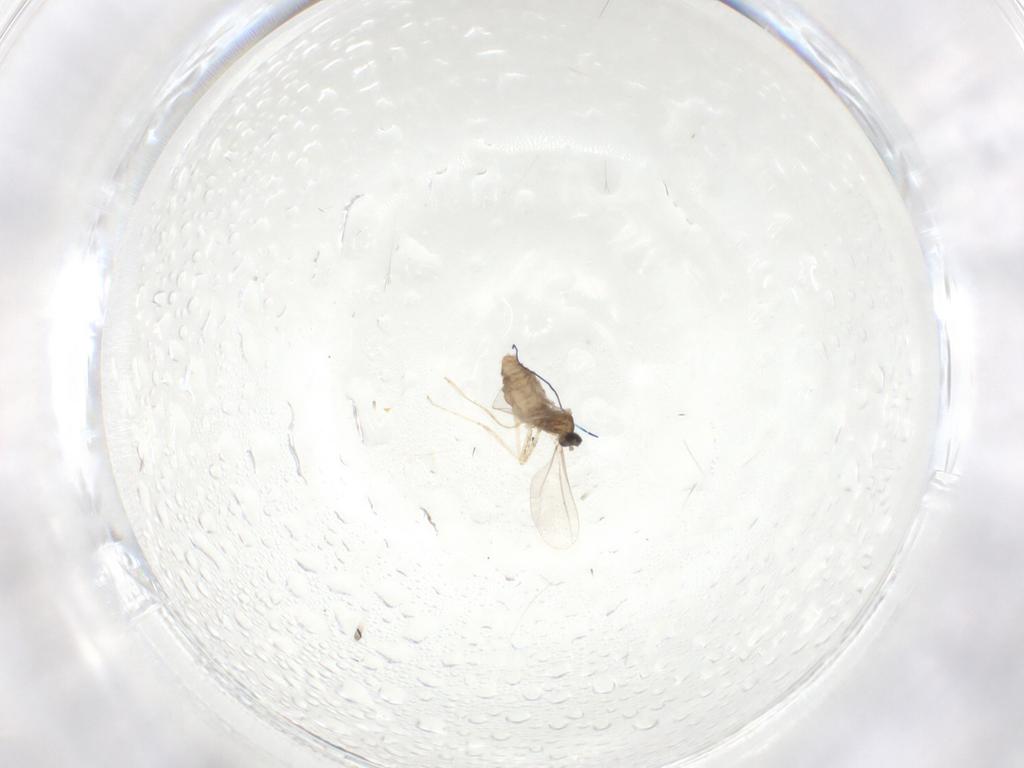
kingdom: Animalia
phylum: Arthropoda
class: Insecta
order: Diptera
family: Cecidomyiidae
